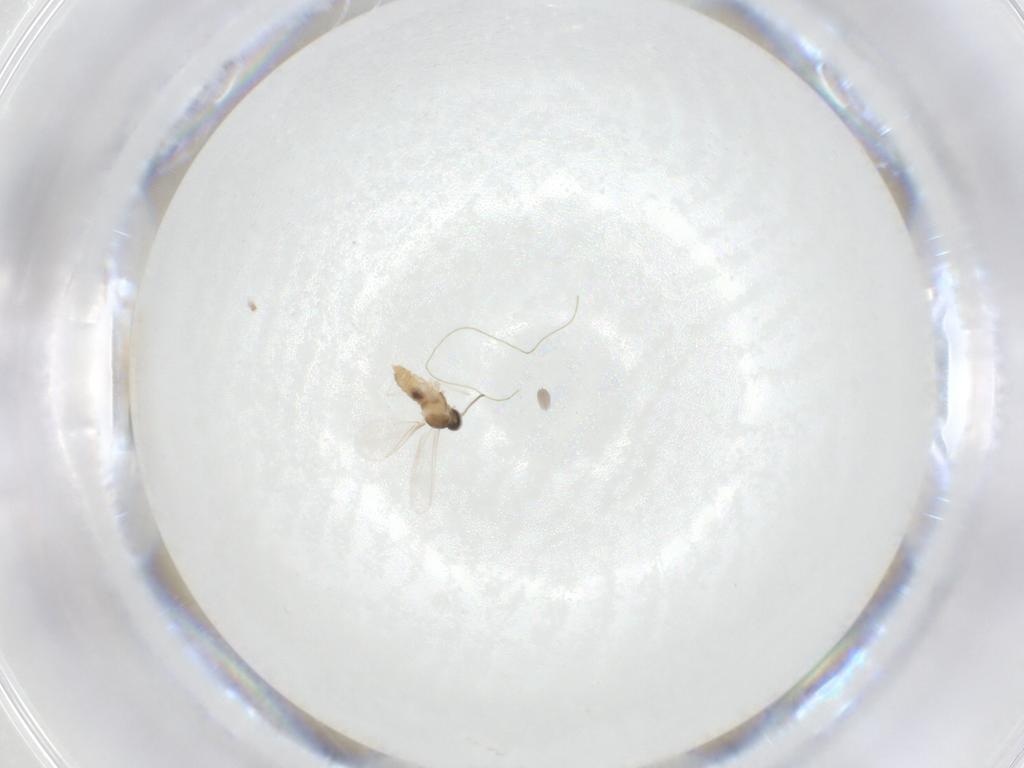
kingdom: Animalia
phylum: Arthropoda
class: Insecta
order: Diptera
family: Cecidomyiidae
